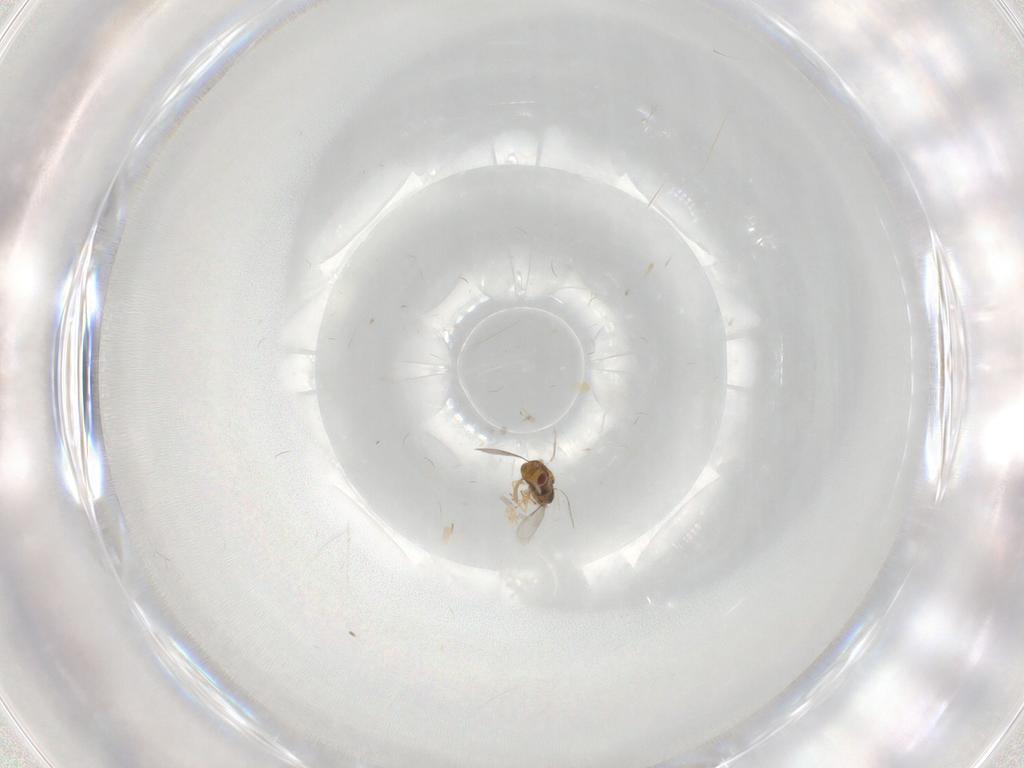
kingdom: Animalia
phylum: Arthropoda
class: Insecta
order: Hymenoptera
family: Aphelinidae
